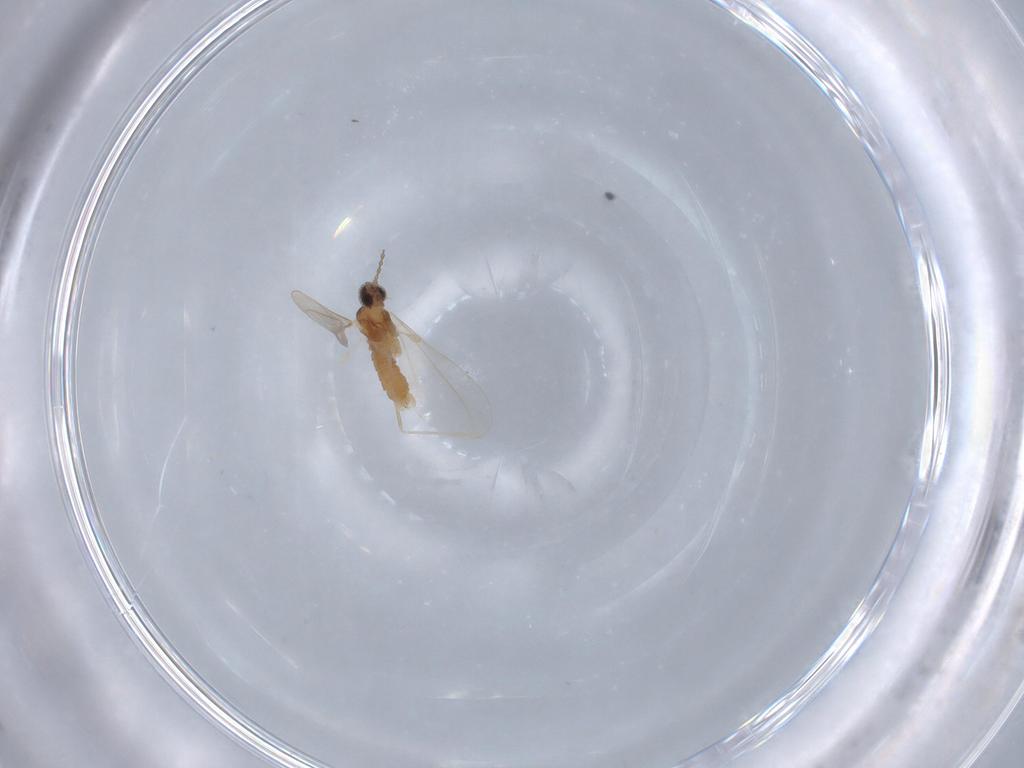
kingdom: Animalia
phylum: Arthropoda
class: Insecta
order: Diptera
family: Cecidomyiidae
